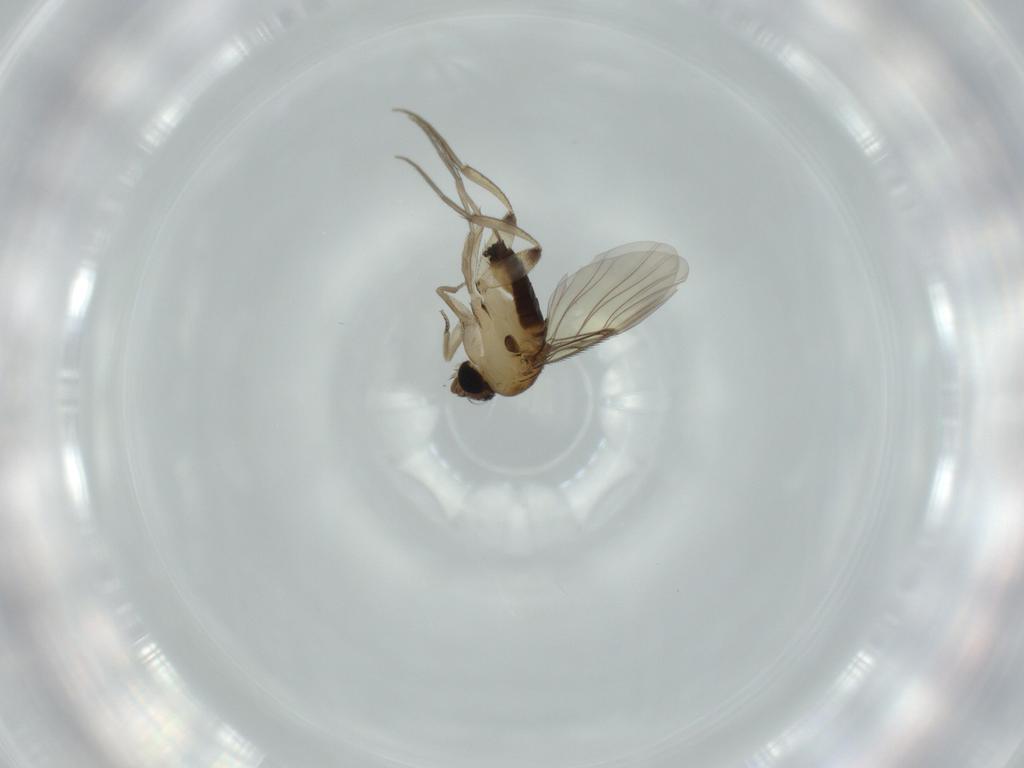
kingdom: Animalia
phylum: Arthropoda
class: Insecta
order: Diptera
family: Phoridae
